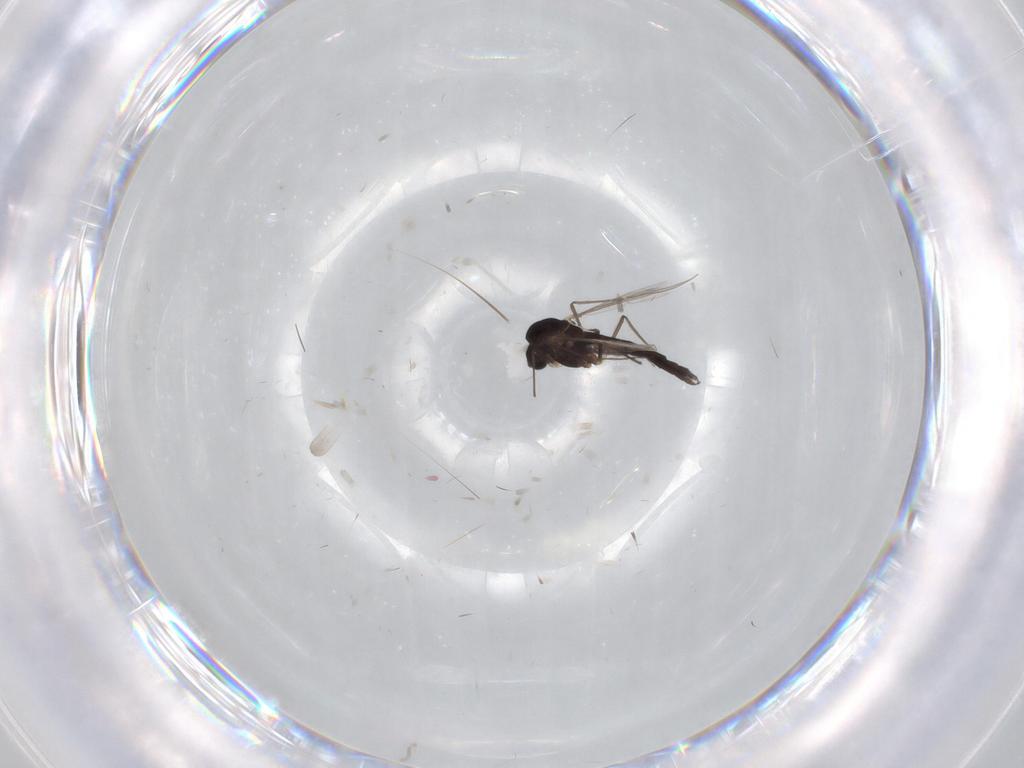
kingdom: Animalia
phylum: Arthropoda
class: Insecta
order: Diptera
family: Chironomidae
